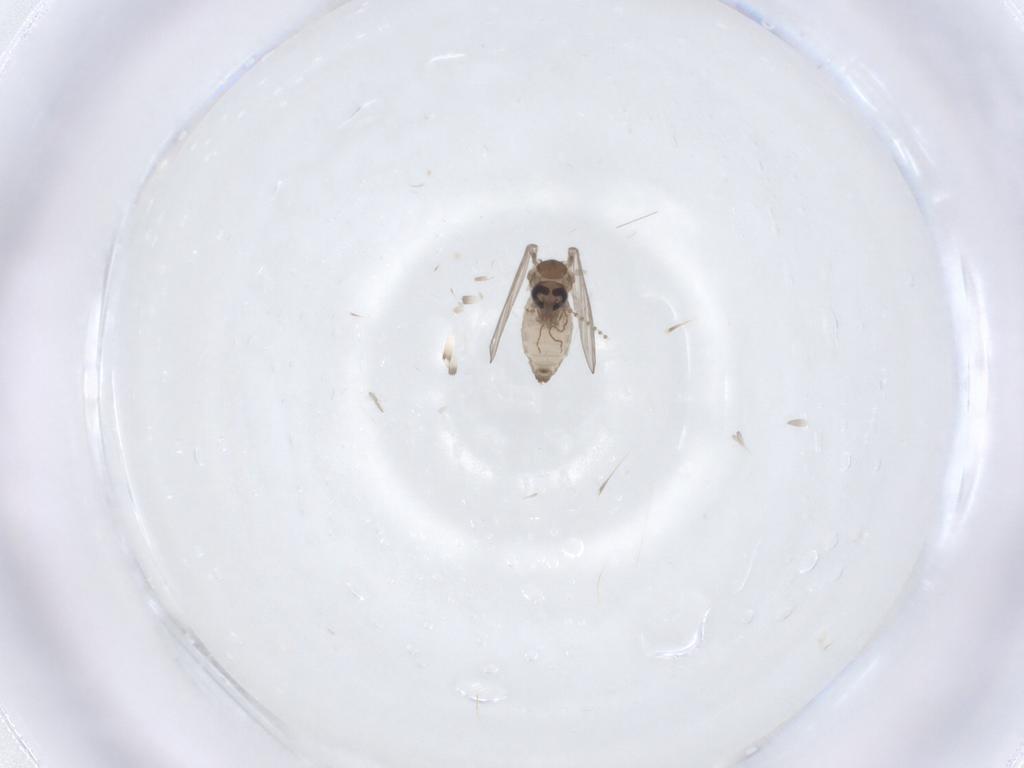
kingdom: Animalia
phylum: Arthropoda
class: Insecta
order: Diptera
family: Psychodidae
